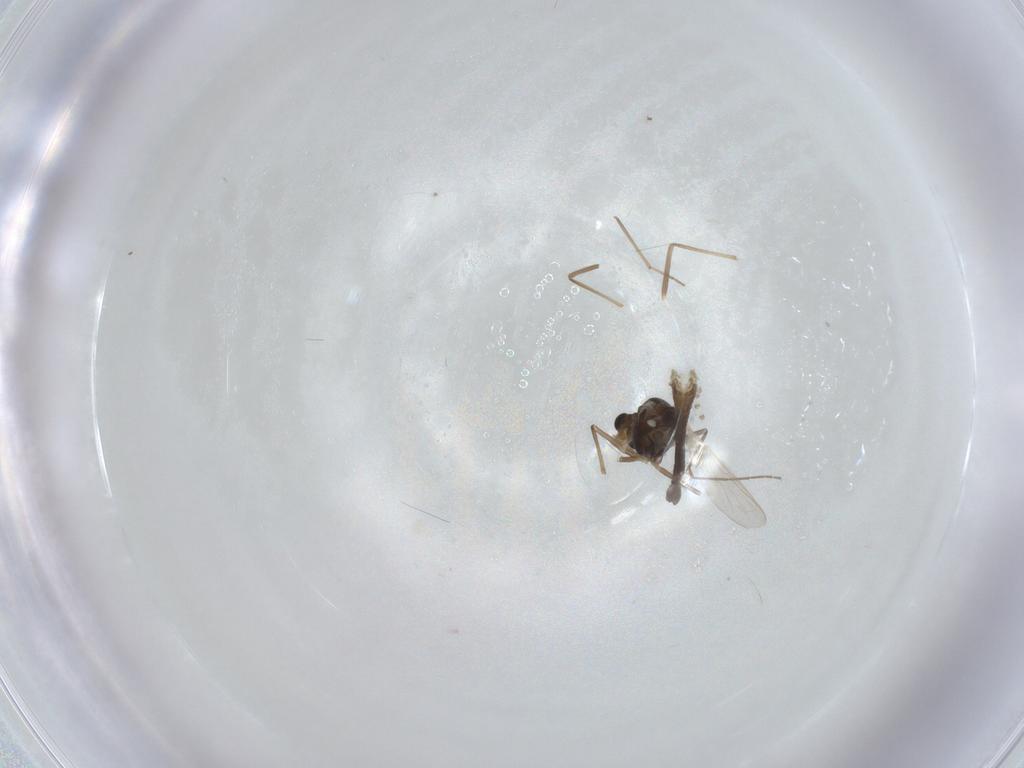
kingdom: Animalia
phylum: Arthropoda
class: Insecta
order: Diptera
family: Chironomidae
